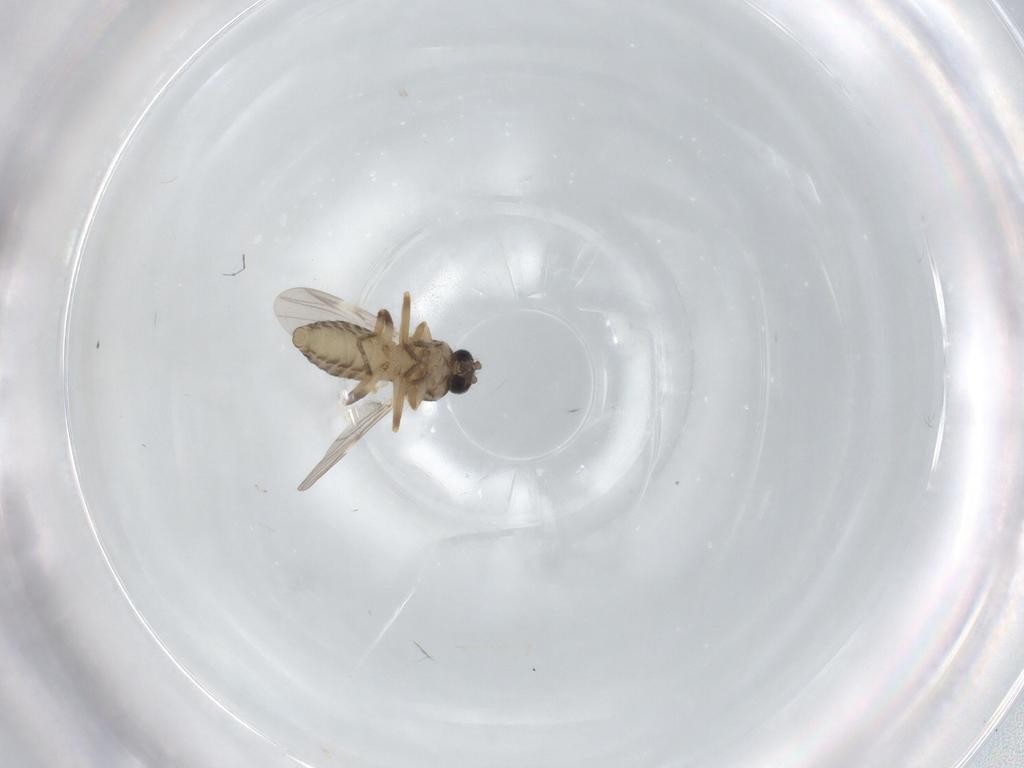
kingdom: Animalia
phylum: Arthropoda
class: Insecta
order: Diptera
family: Ceratopogonidae
